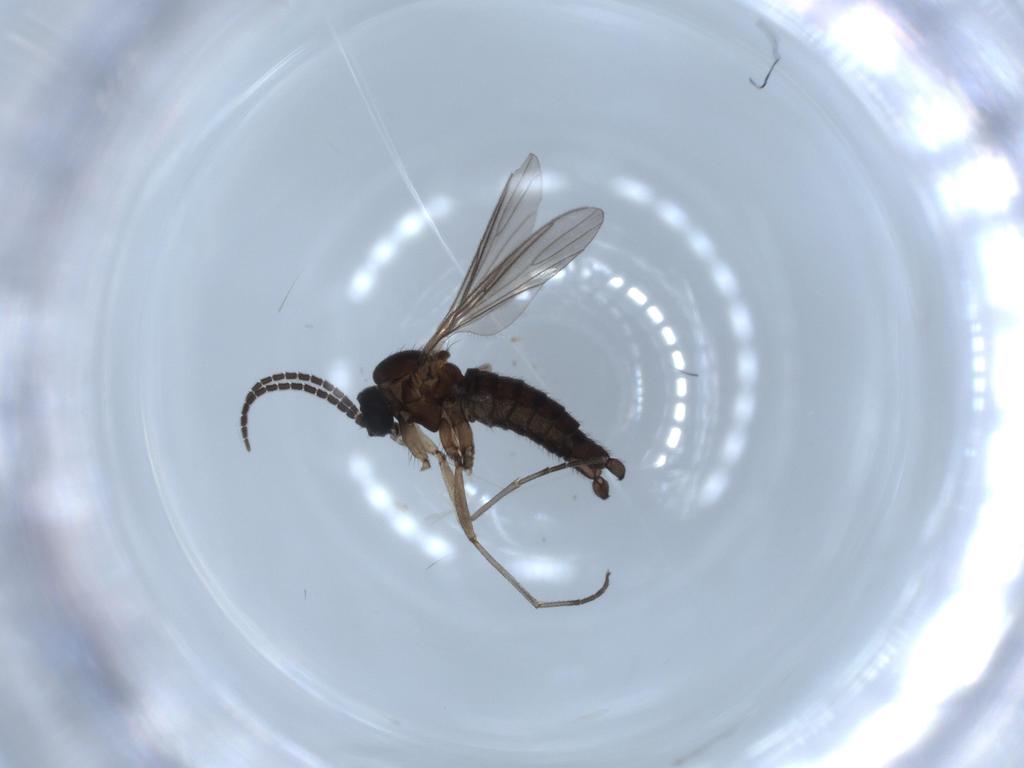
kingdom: Animalia
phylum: Arthropoda
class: Insecta
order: Diptera
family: Sciaridae
